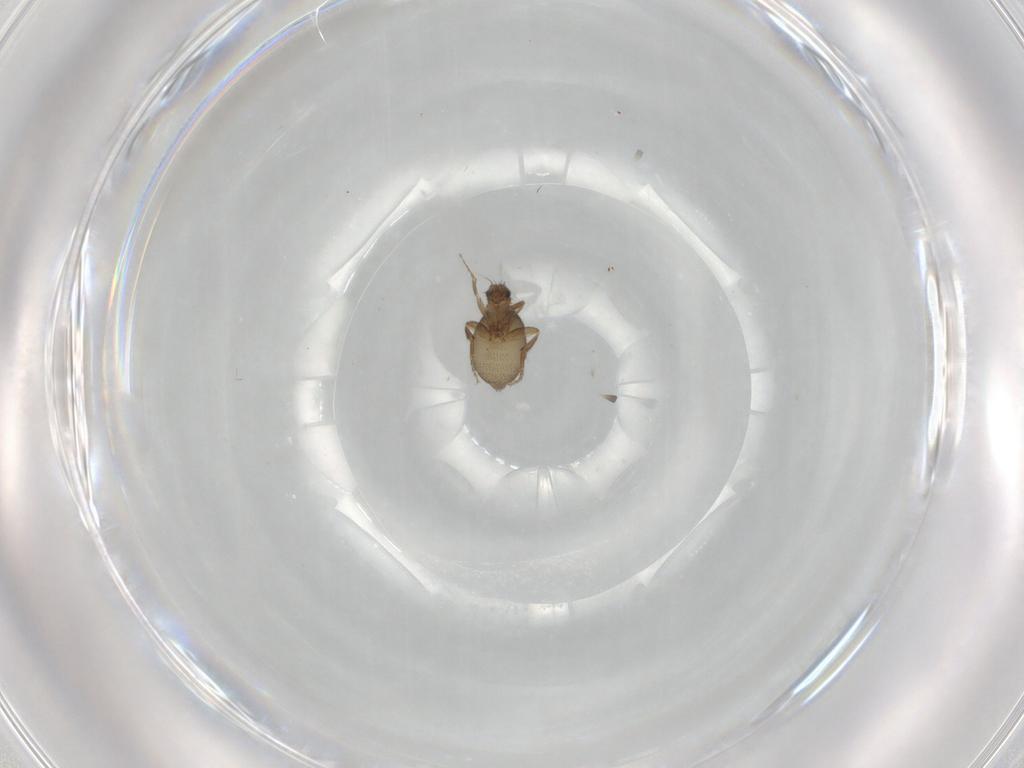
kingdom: Animalia
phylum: Arthropoda
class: Insecta
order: Diptera
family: Phoridae
